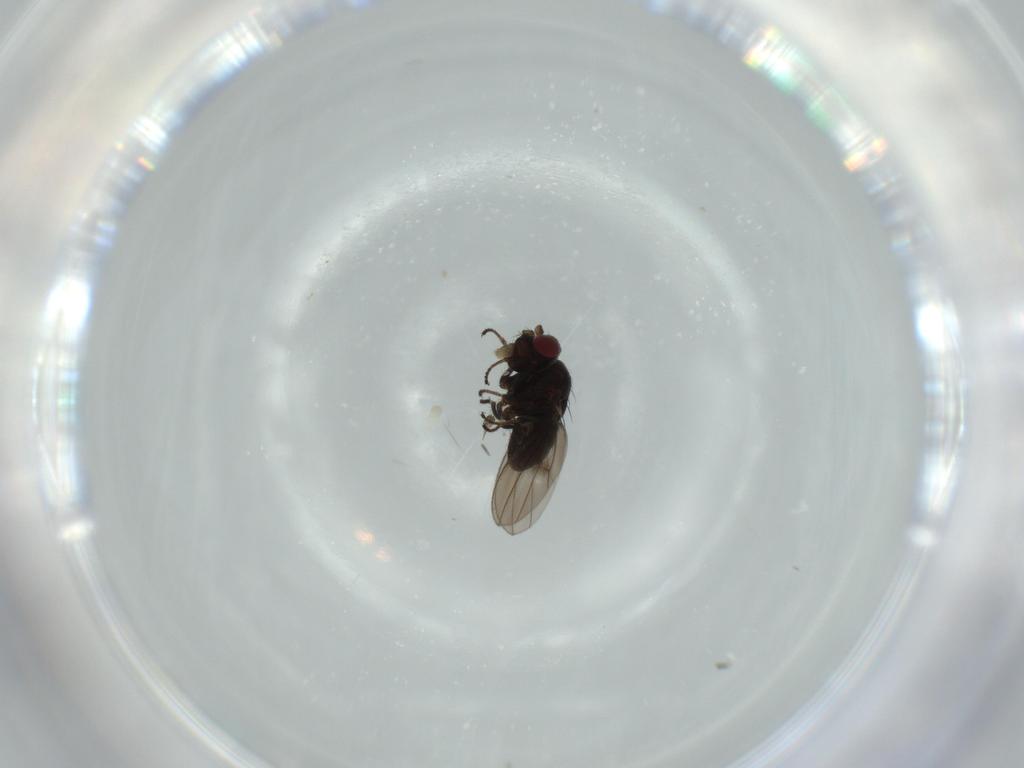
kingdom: Animalia
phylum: Arthropoda
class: Insecta
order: Diptera
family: Ephydridae
